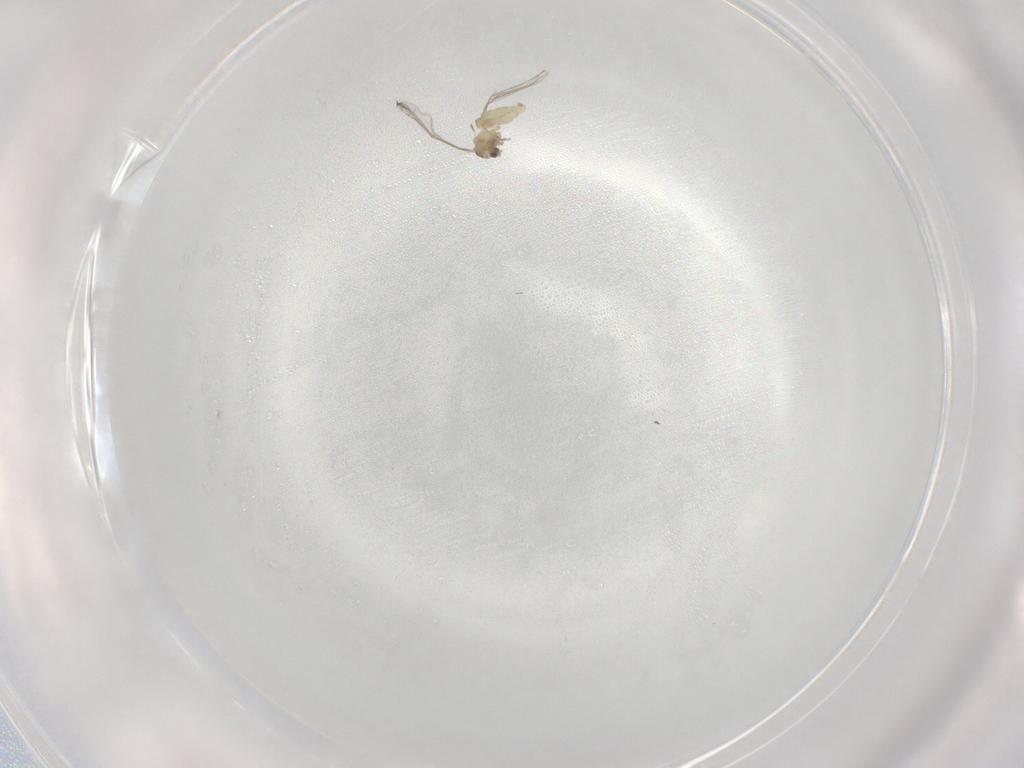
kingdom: Animalia
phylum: Arthropoda
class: Insecta
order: Diptera
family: Cecidomyiidae
